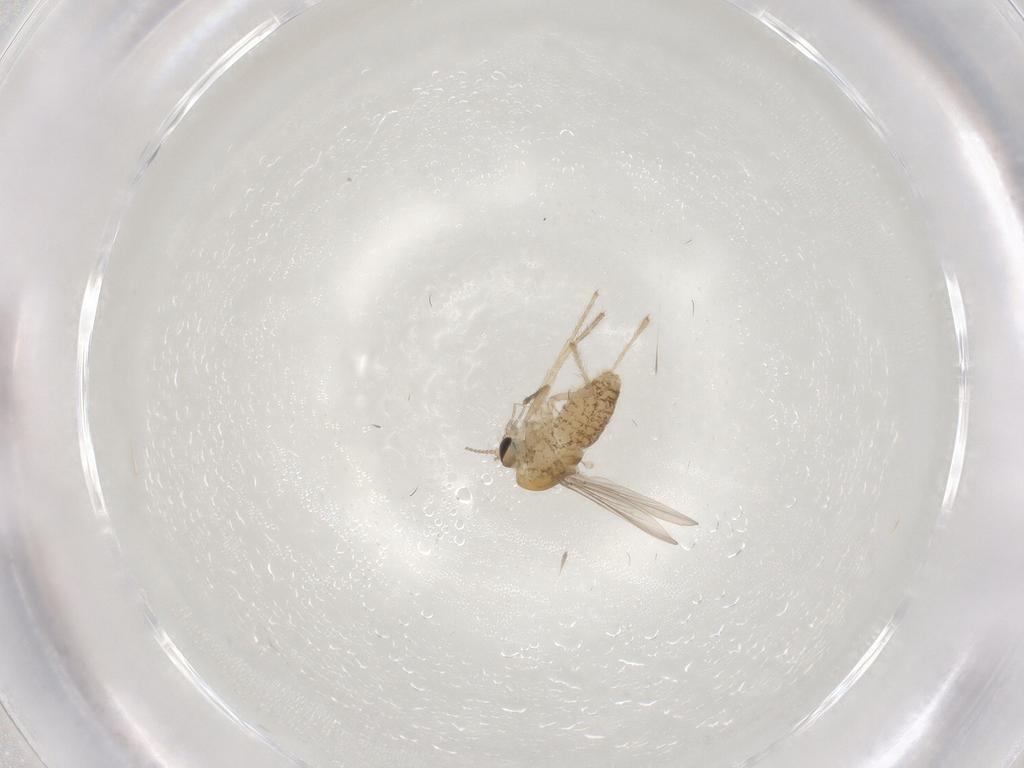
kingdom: Animalia
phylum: Arthropoda
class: Insecta
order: Diptera
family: Chironomidae
